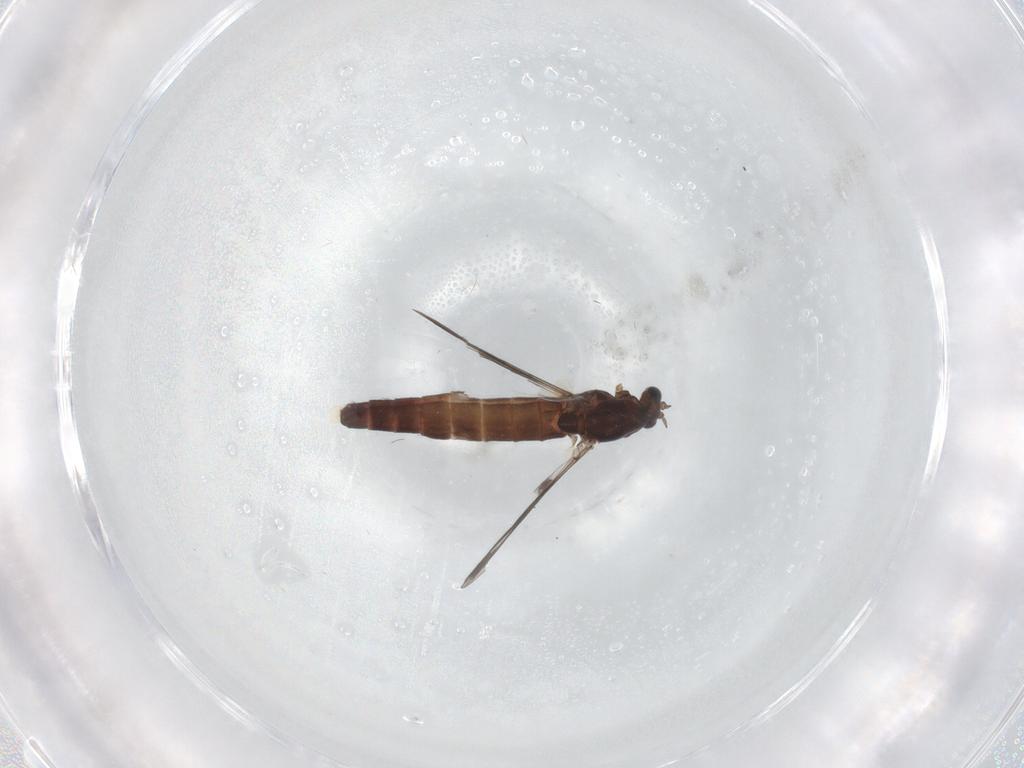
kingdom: Animalia
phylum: Arthropoda
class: Insecta
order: Diptera
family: Chironomidae
